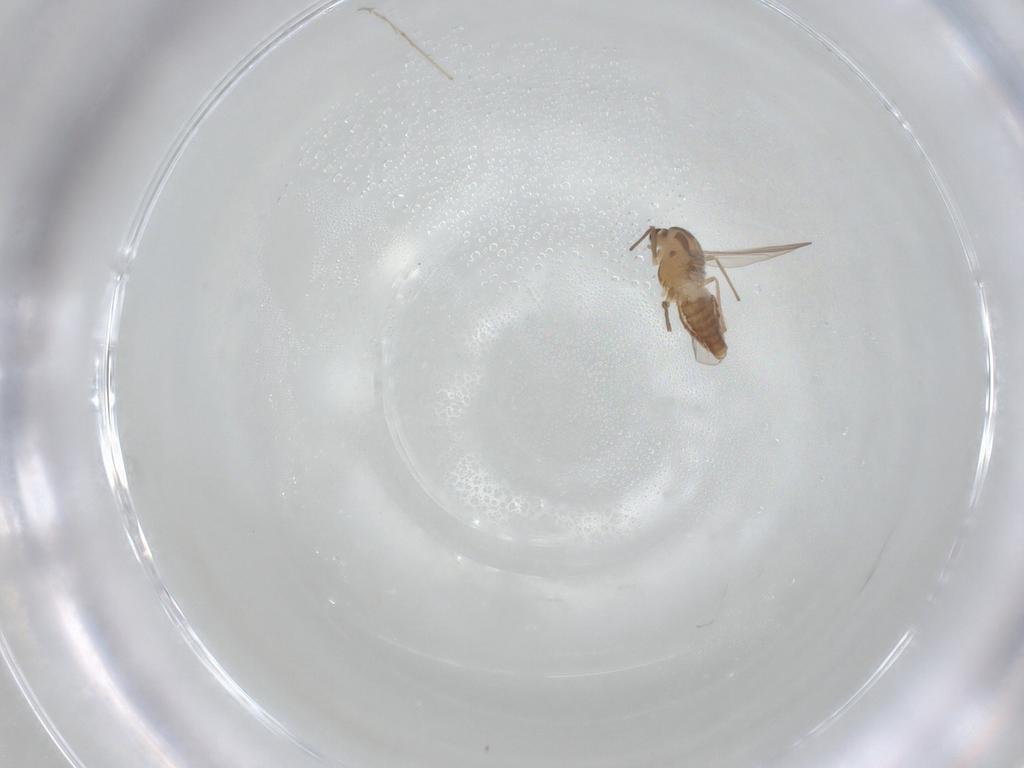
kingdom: Animalia
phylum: Arthropoda
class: Insecta
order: Diptera
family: Chironomidae
